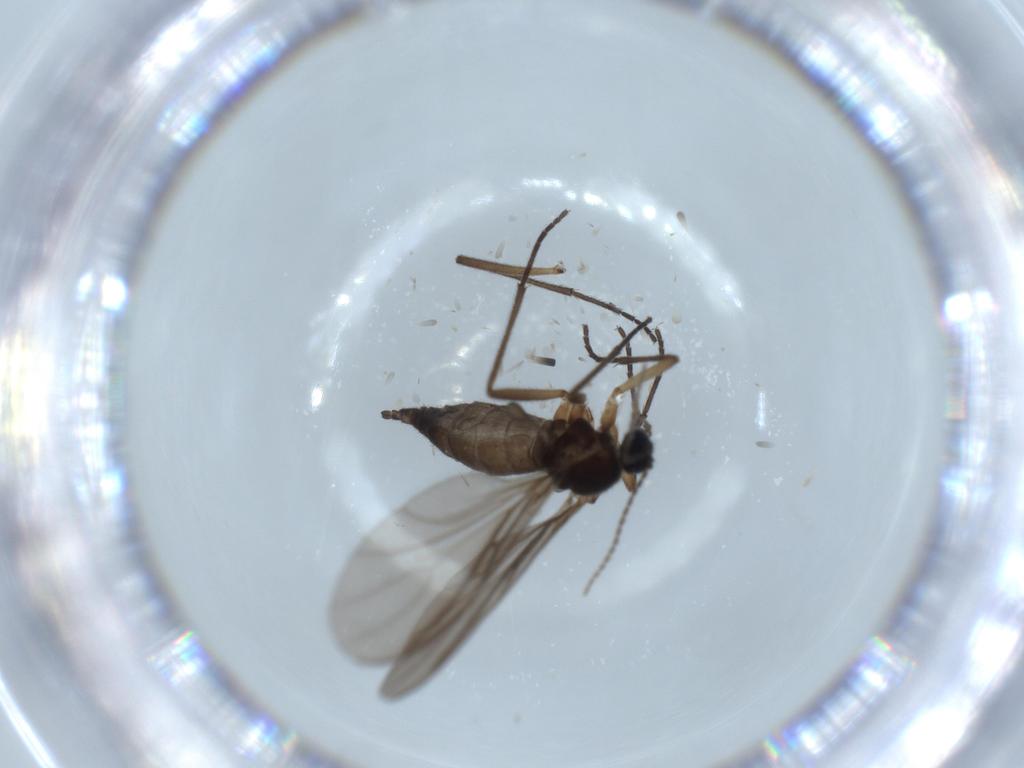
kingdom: Animalia
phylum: Arthropoda
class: Insecta
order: Diptera
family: Sciaridae
